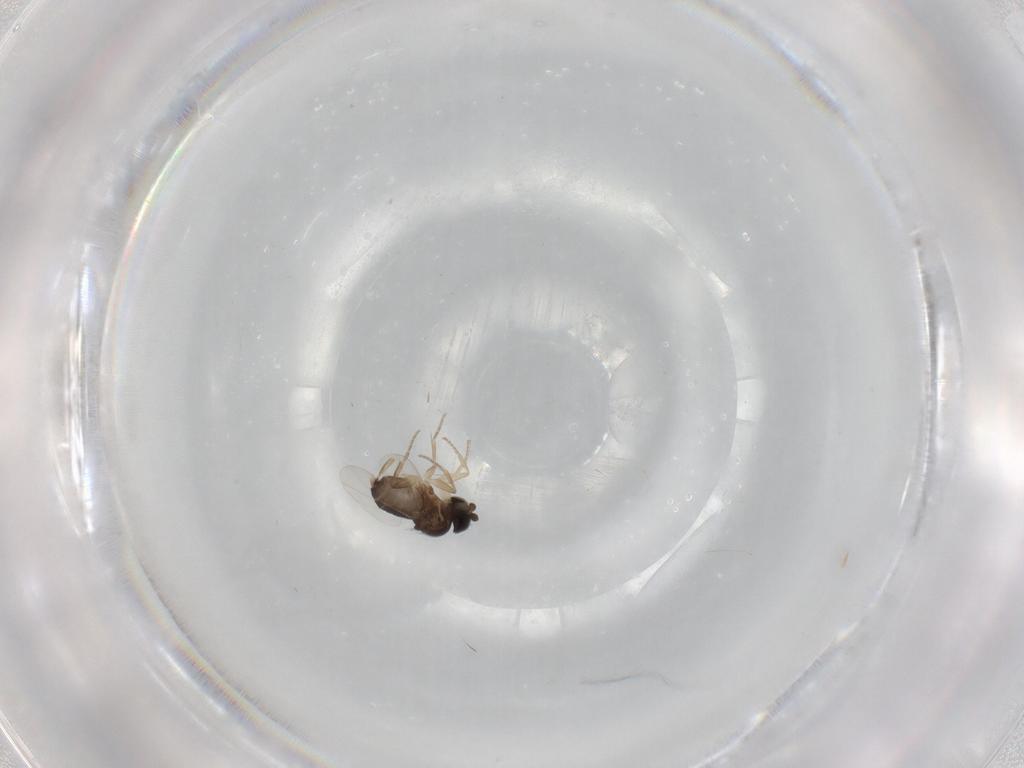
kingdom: Animalia
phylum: Arthropoda
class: Insecta
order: Diptera
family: Phoridae
